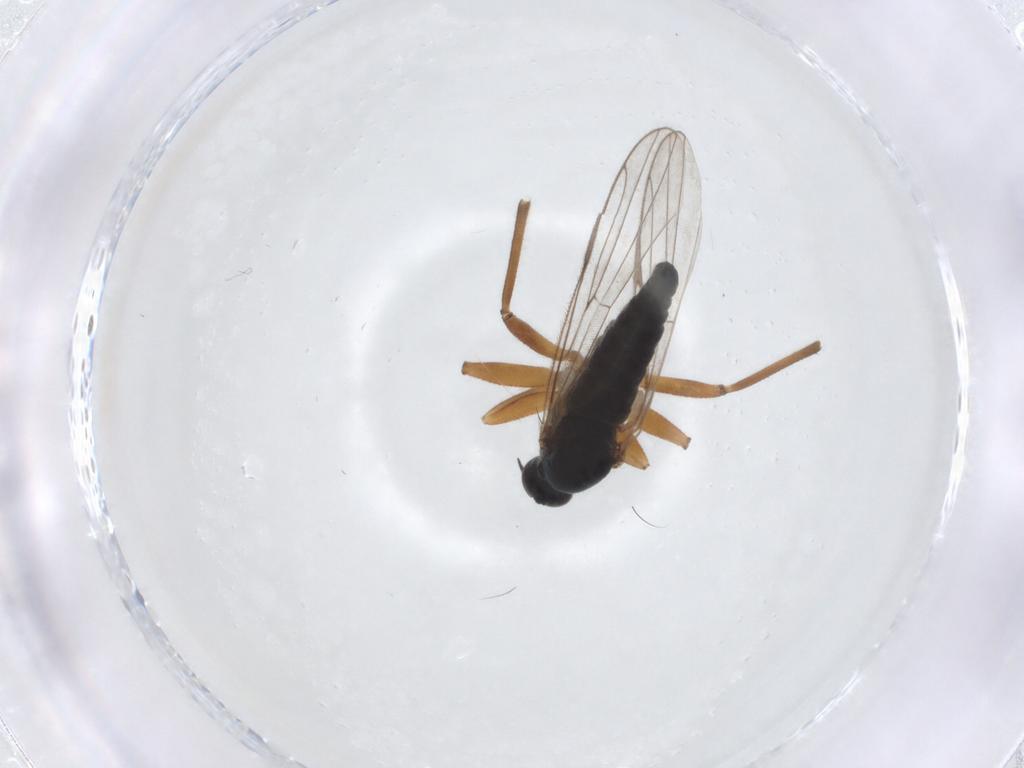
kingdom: Animalia
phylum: Arthropoda
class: Insecta
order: Diptera
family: Hybotidae
